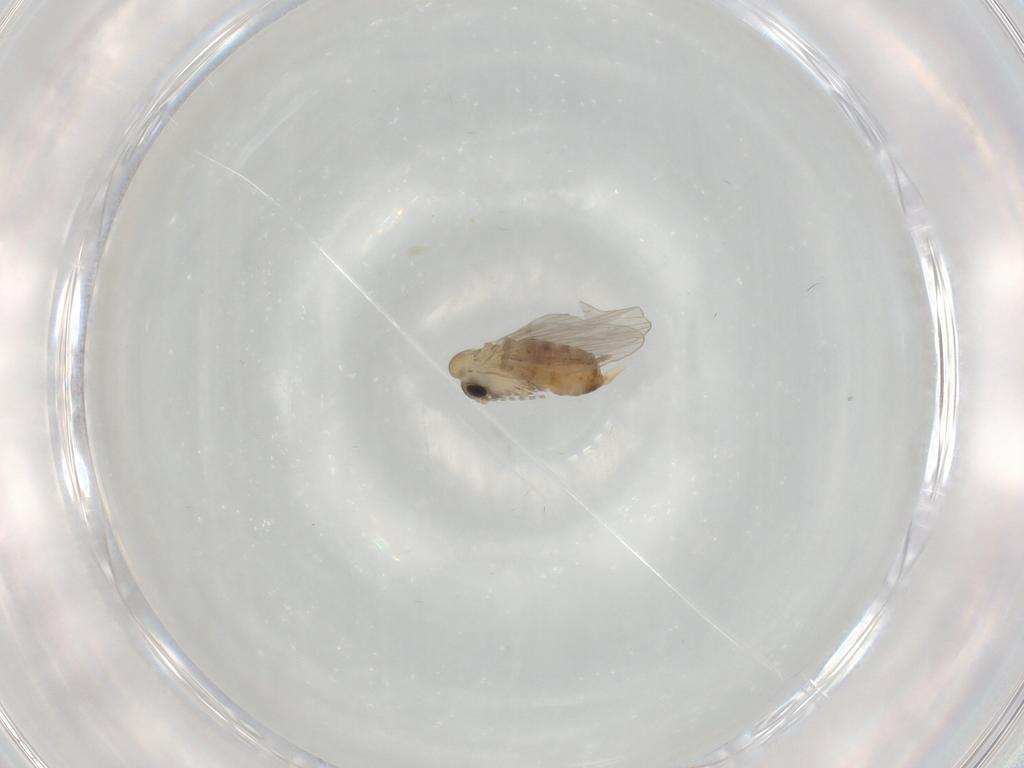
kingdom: Animalia
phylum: Arthropoda
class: Insecta
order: Diptera
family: Psychodidae
